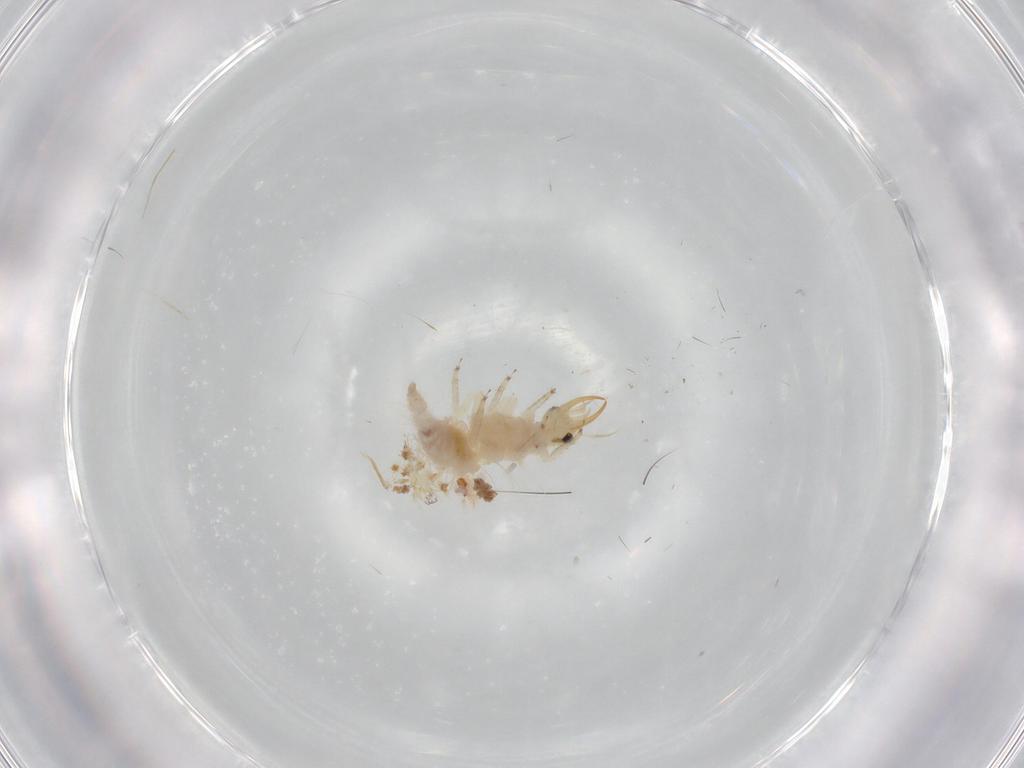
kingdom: Animalia
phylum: Arthropoda
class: Insecta
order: Neuroptera
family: Chrysopidae
